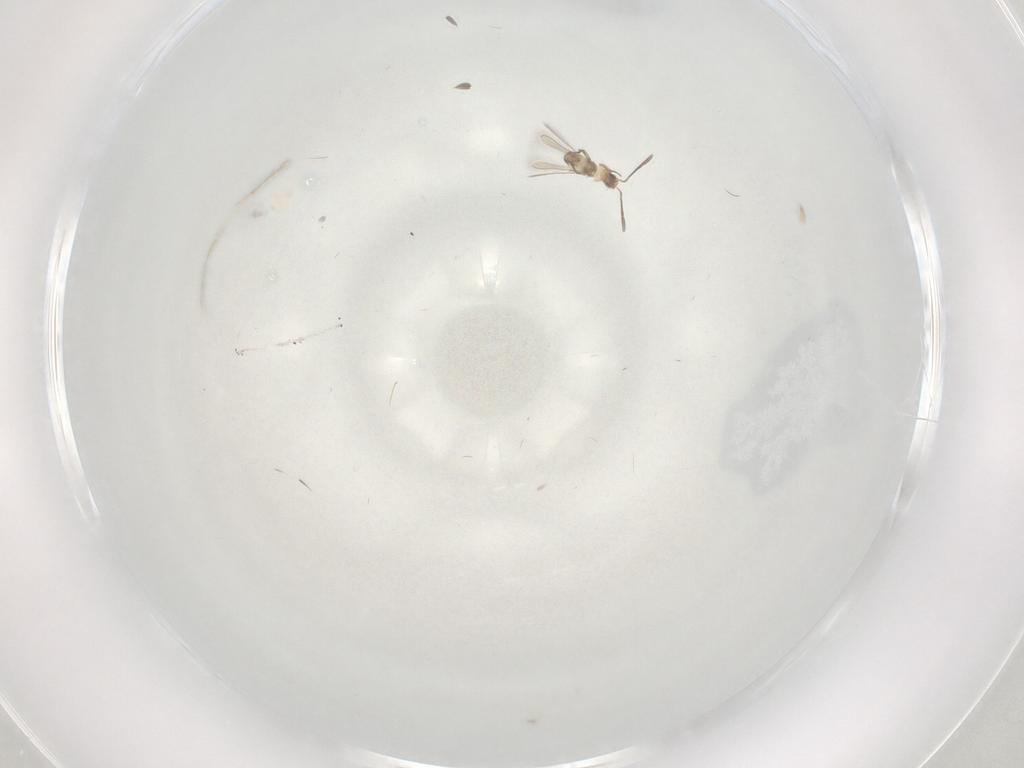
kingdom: Animalia
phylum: Arthropoda
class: Insecta
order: Hymenoptera
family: Mymaridae
